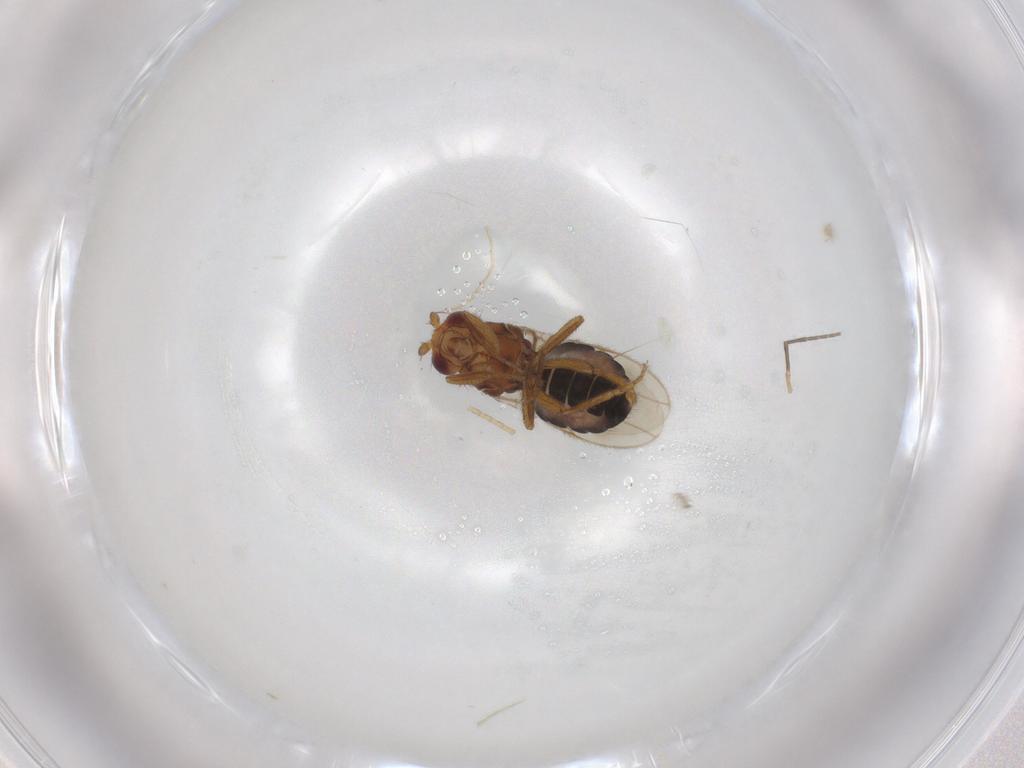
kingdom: Animalia
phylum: Arthropoda
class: Insecta
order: Diptera
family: Sphaeroceridae
